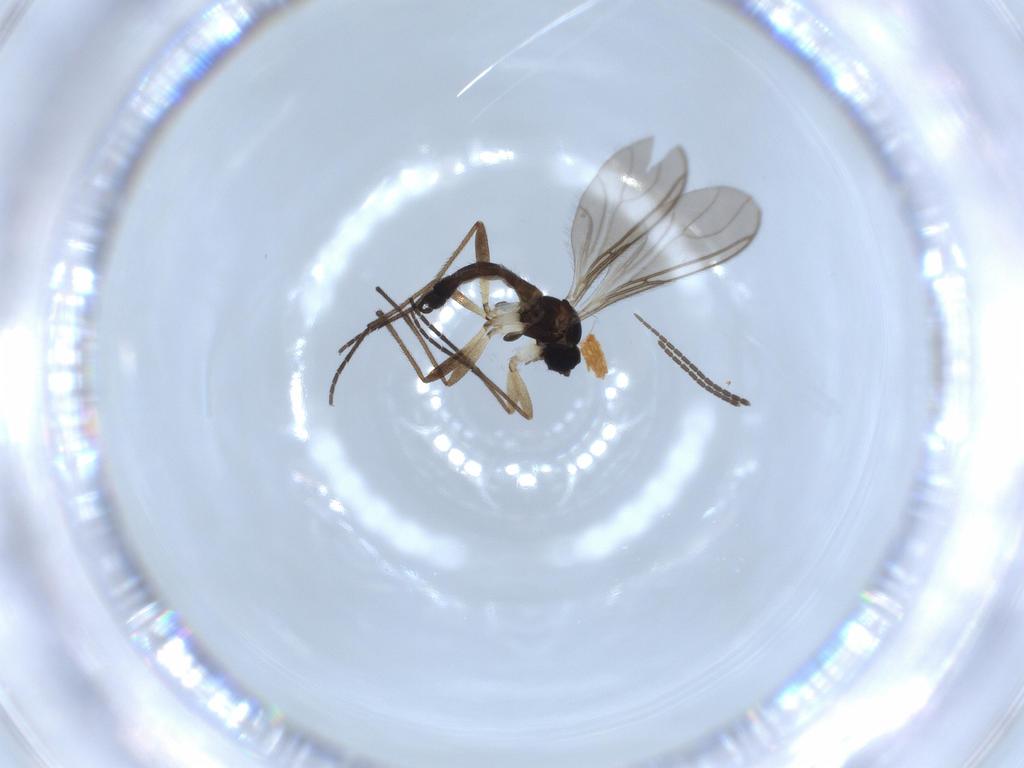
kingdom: Animalia
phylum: Arthropoda
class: Insecta
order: Diptera
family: Sciaridae
